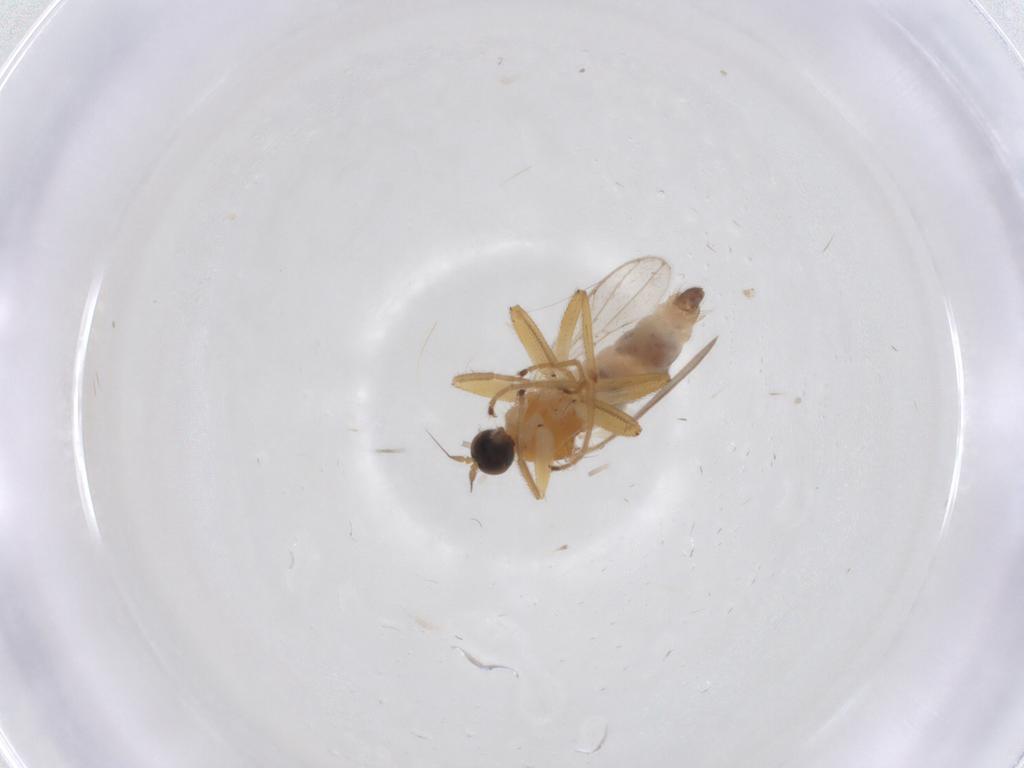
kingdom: Animalia
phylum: Arthropoda
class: Insecta
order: Diptera
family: Hybotidae
